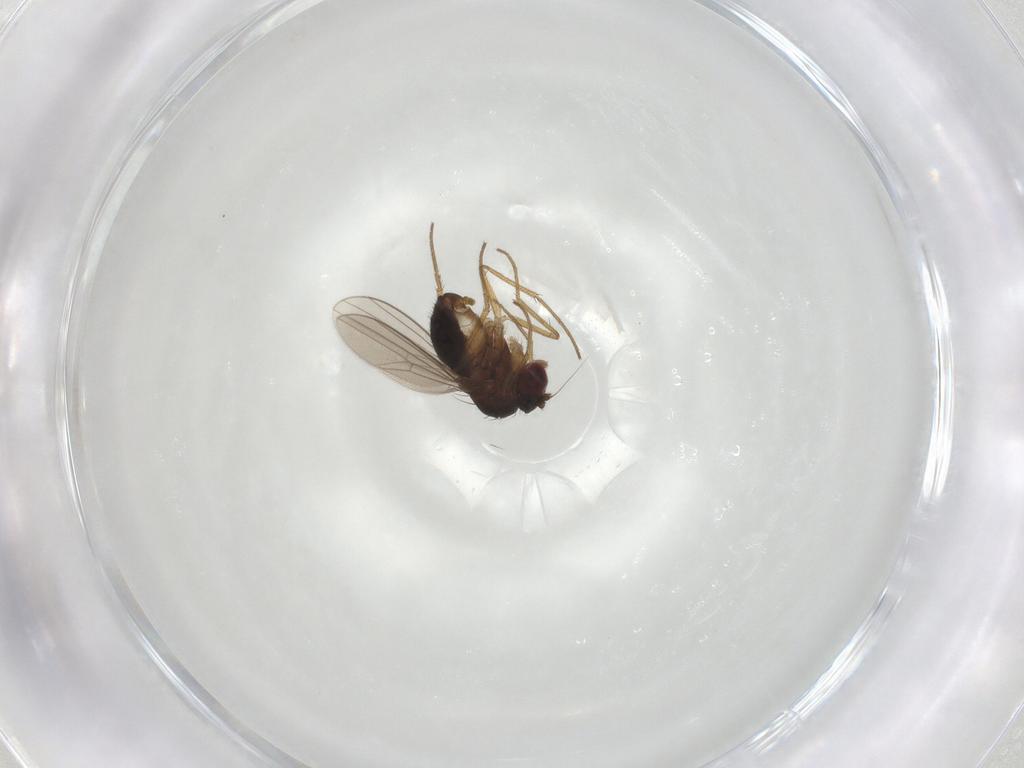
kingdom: Animalia
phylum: Arthropoda
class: Insecta
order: Diptera
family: Dolichopodidae
